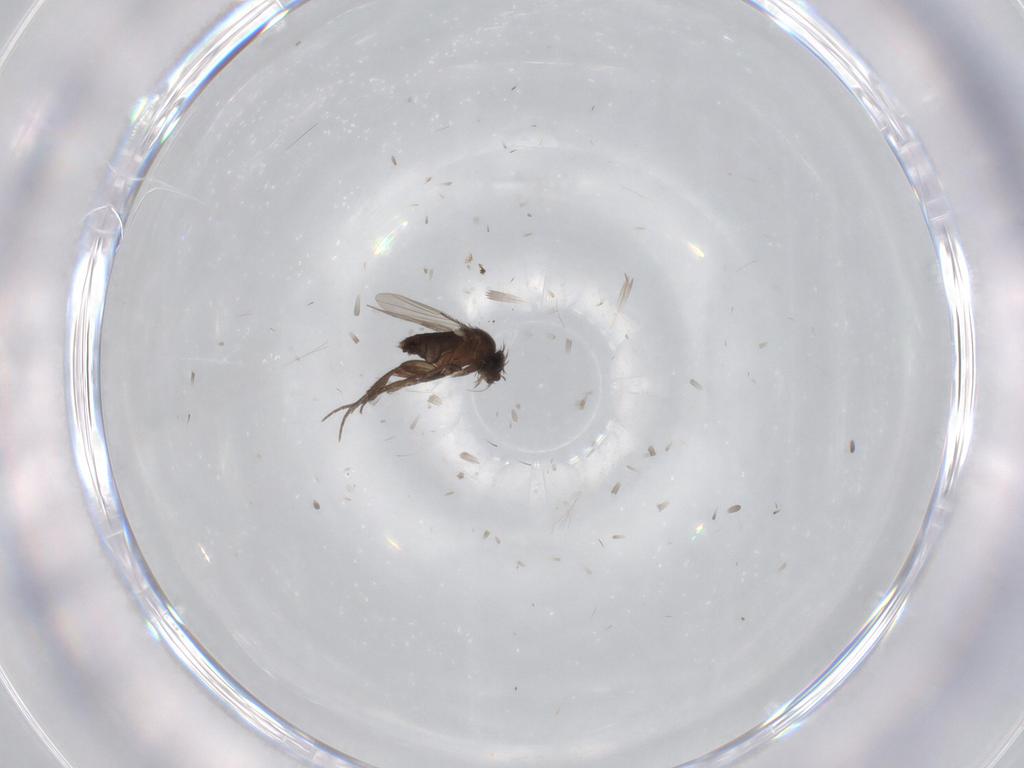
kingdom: Animalia
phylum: Arthropoda
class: Insecta
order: Diptera
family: Phoridae
